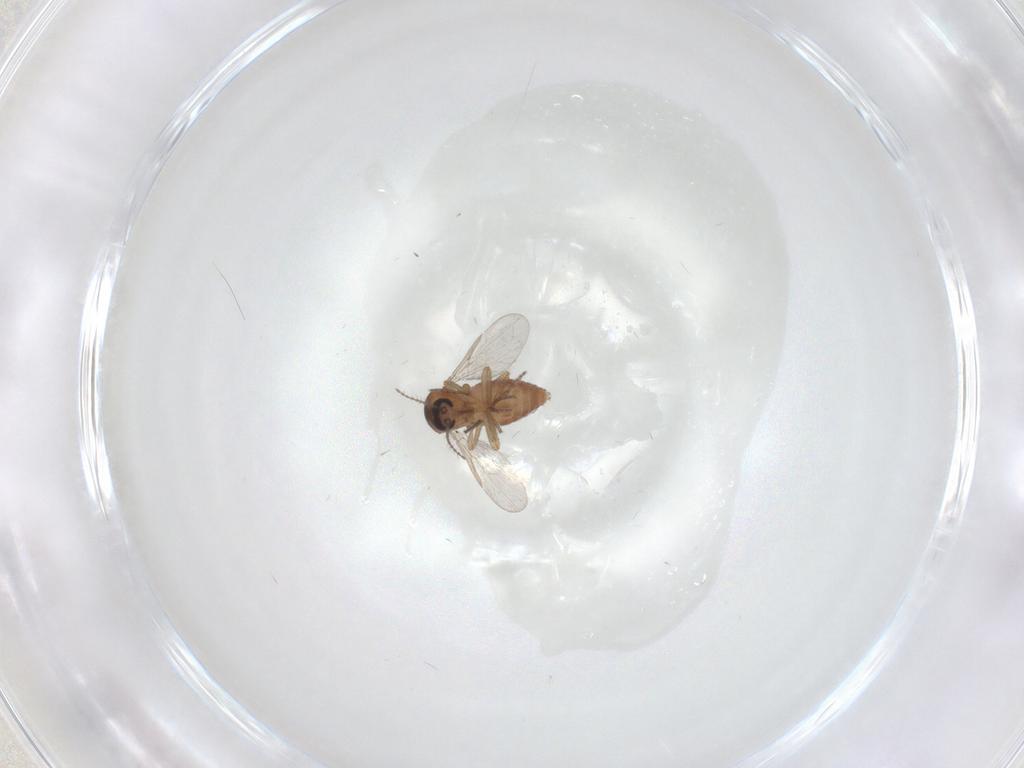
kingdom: Animalia
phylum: Arthropoda
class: Insecta
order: Diptera
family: Ceratopogonidae
